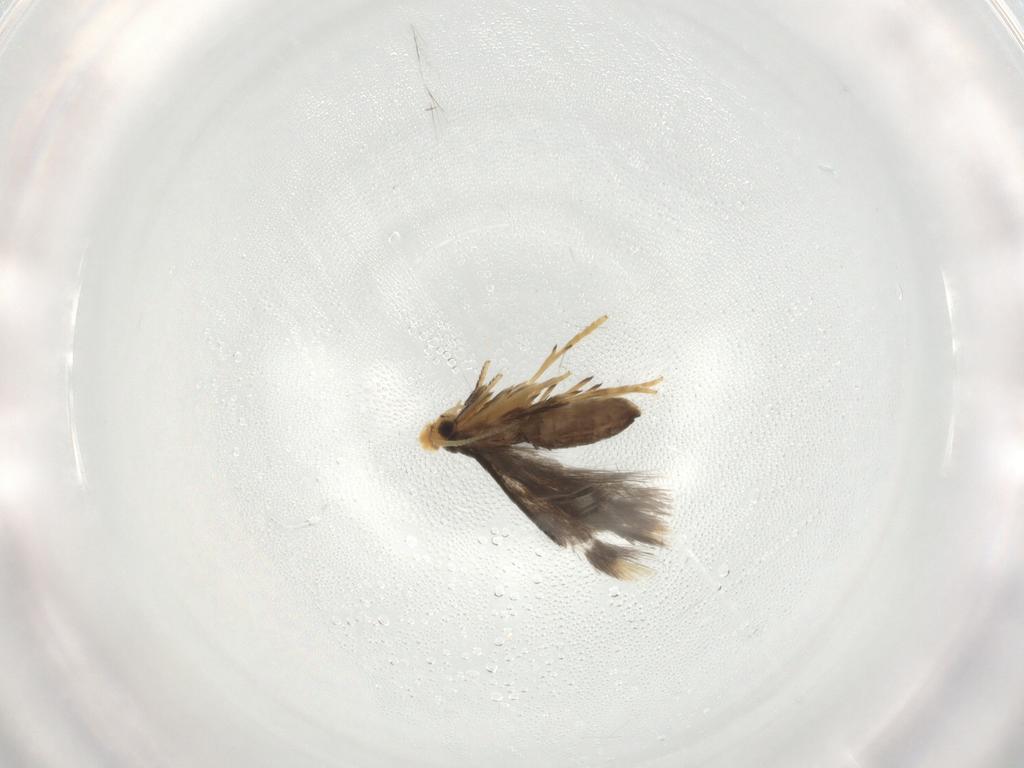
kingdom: Animalia
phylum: Arthropoda
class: Insecta
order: Lepidoptera
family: Nepticulidae
